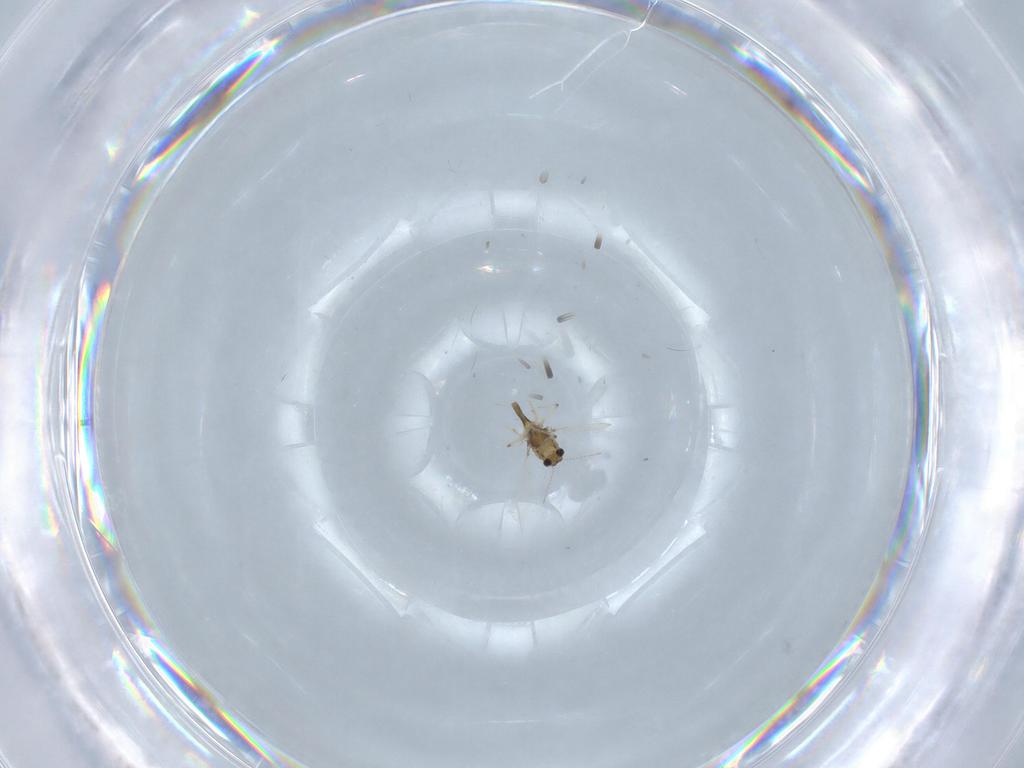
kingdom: Animalia
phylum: Arthropoda
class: Insecta
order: Diptera
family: Chironomidae
